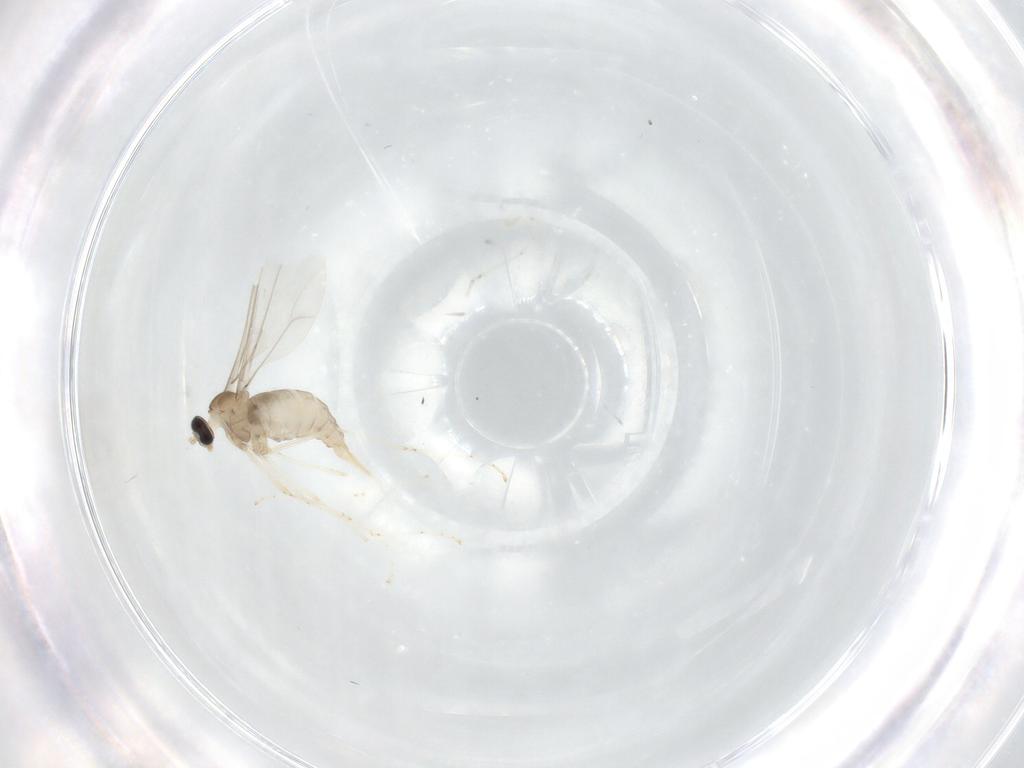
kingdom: Animalia
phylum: Arthropoda
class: Insecta
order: Diptera
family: Cecidomyiidae
